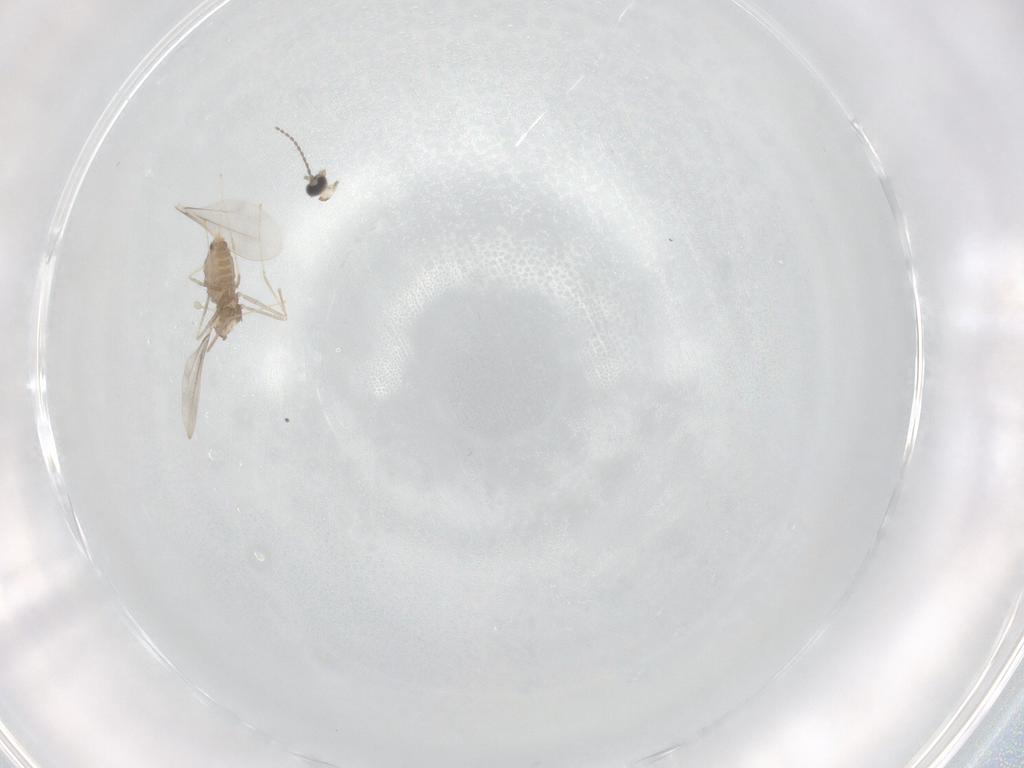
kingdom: Animalia
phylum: Arthropoda
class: Insecta
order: Diptera
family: Cecidomyiidae
